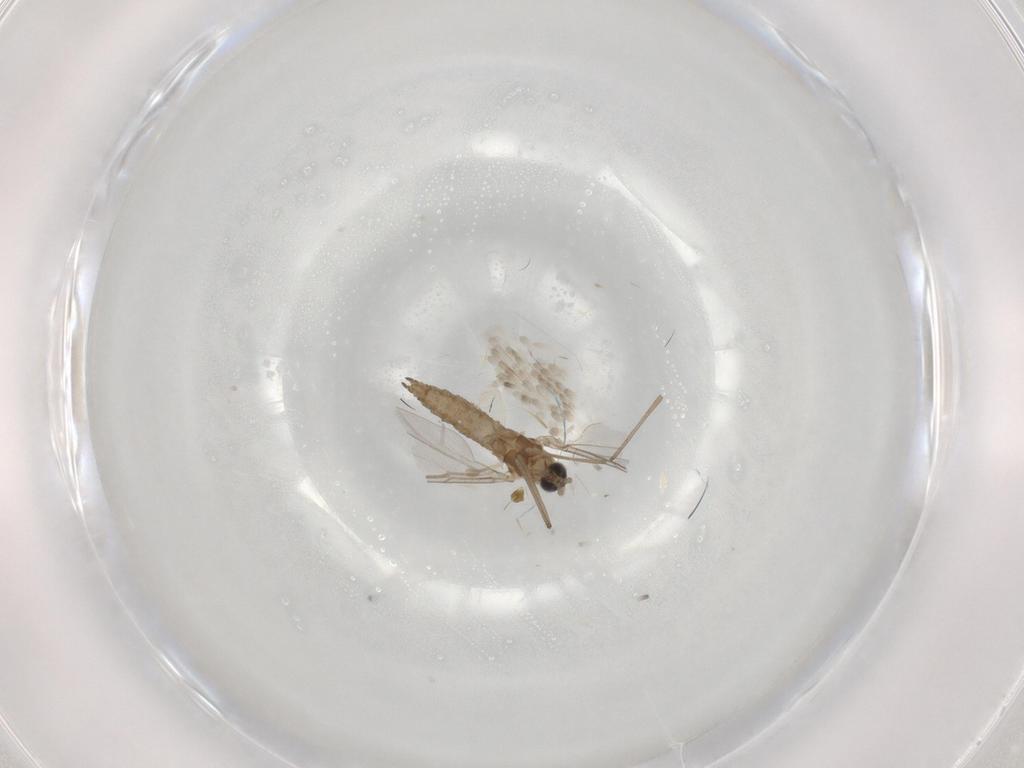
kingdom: Animalia
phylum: Arthropoda
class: Insecta
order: Diptera
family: Cecidomyiidae
